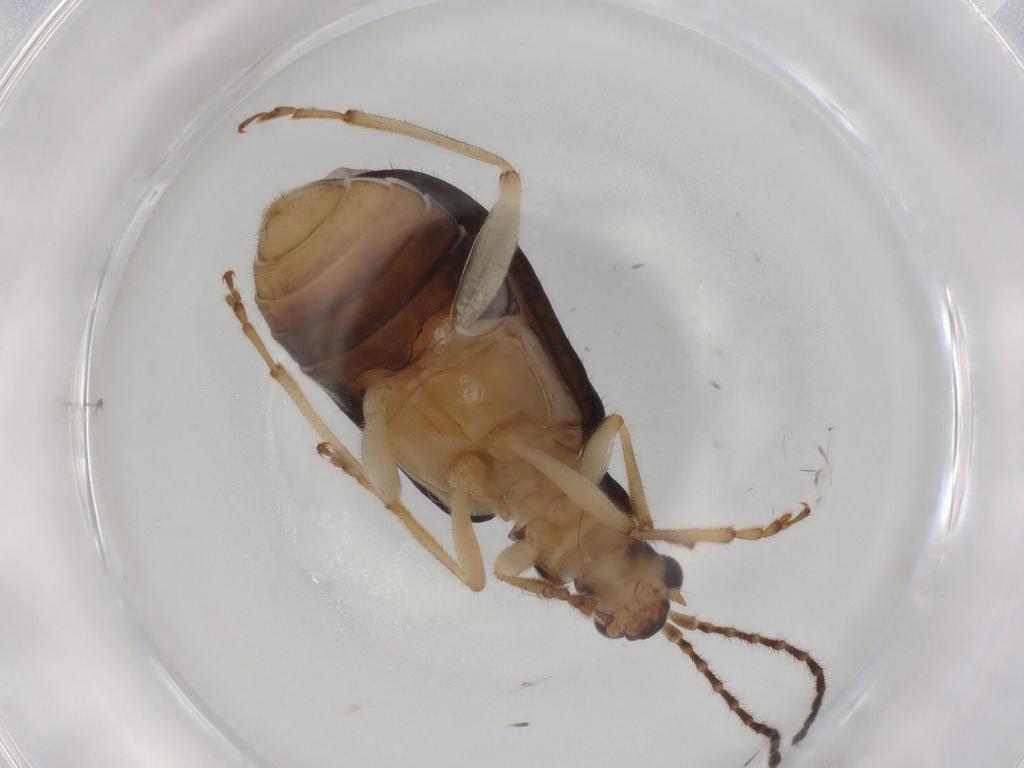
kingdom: Animalia
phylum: Arthropoda
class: Insecta
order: Coleoptera
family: Chrysomelidae
